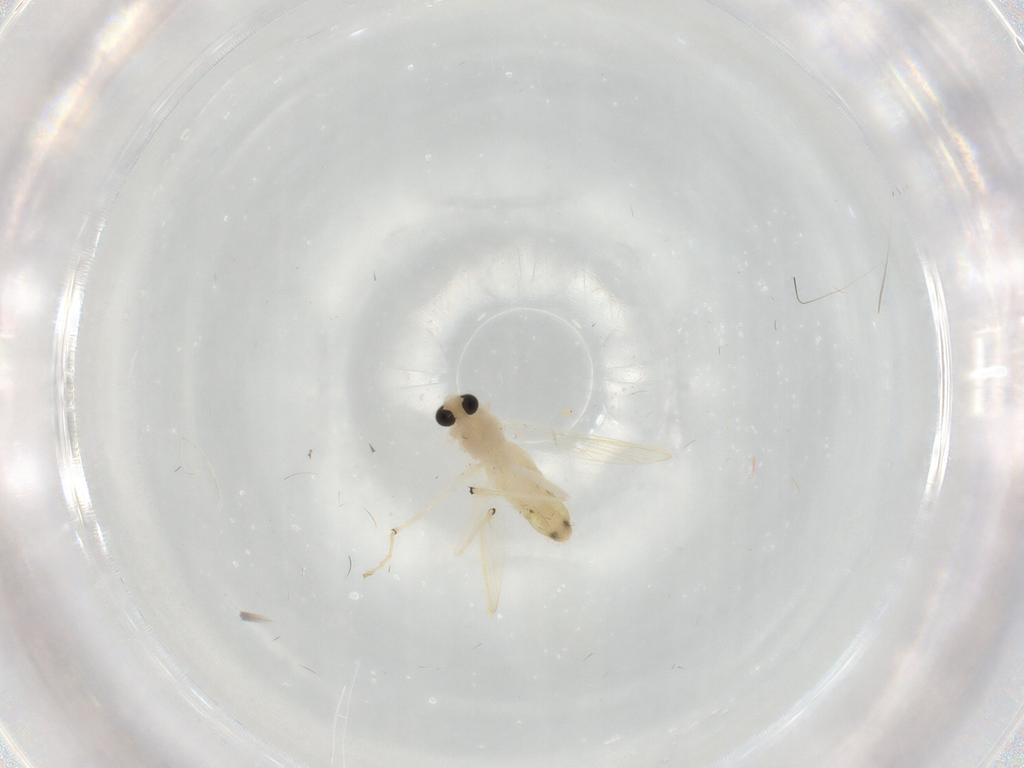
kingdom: Animalia
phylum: Arthropoda
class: Insecta
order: Diptera
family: Chironomidae
